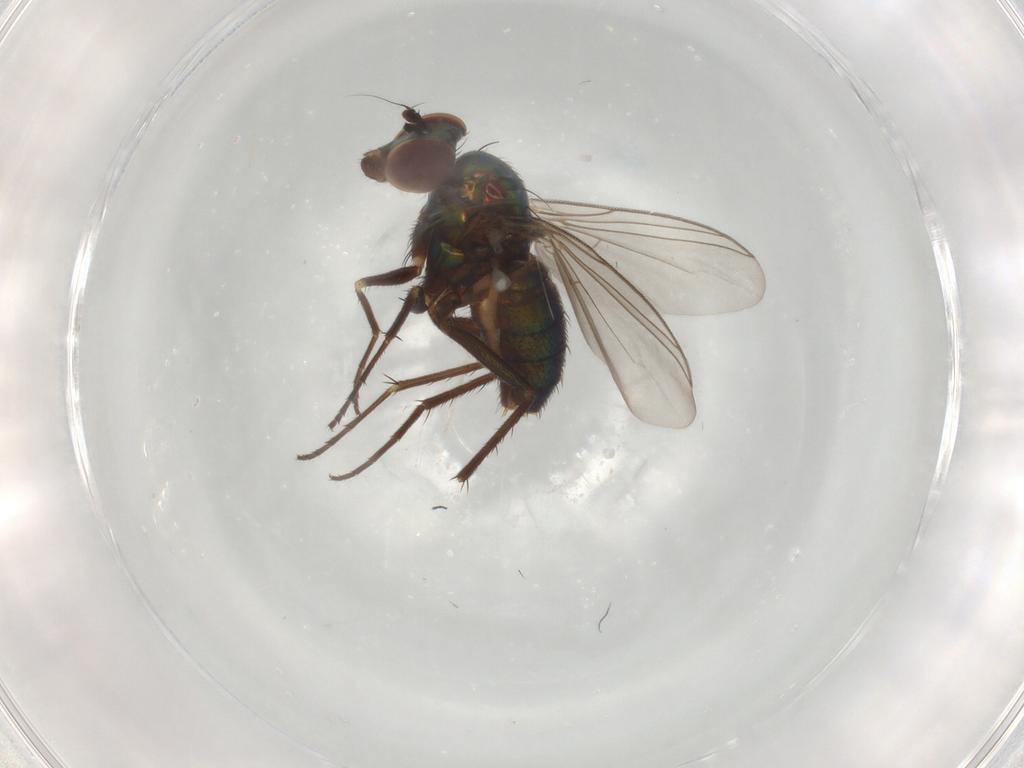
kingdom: Animalia
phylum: Arthropoda
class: Insecta
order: Diptera
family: Dolichopodidae
